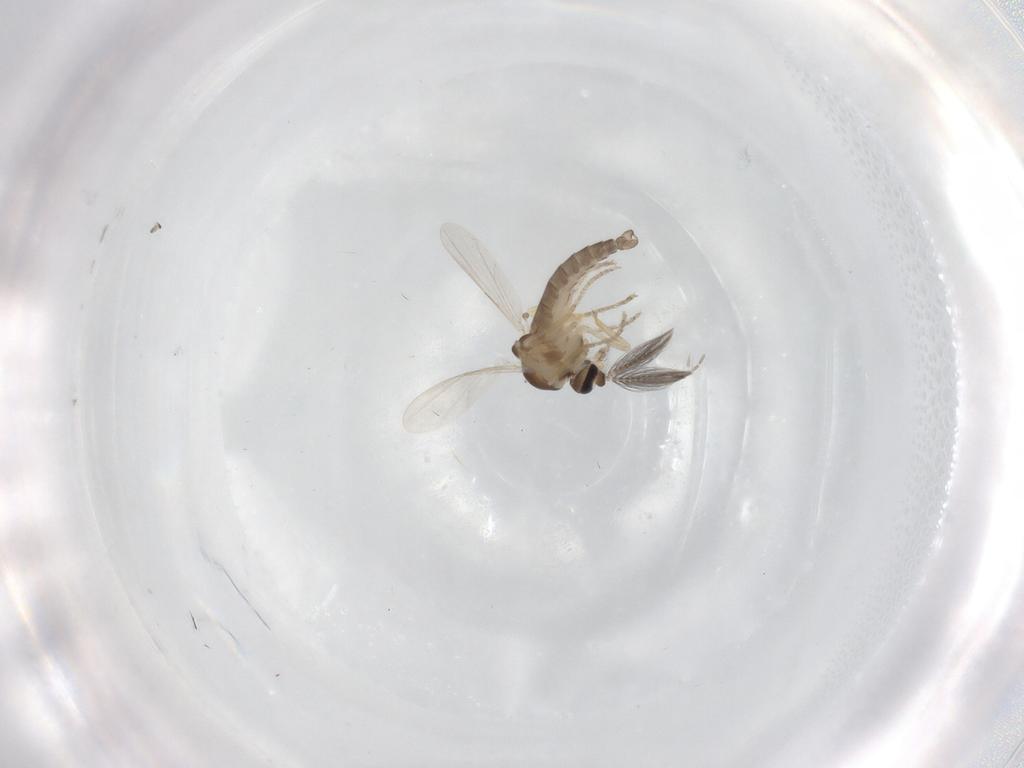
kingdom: Animalia
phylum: Arthropoda
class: Insecta
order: Diptera
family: Ceratopogonidae
